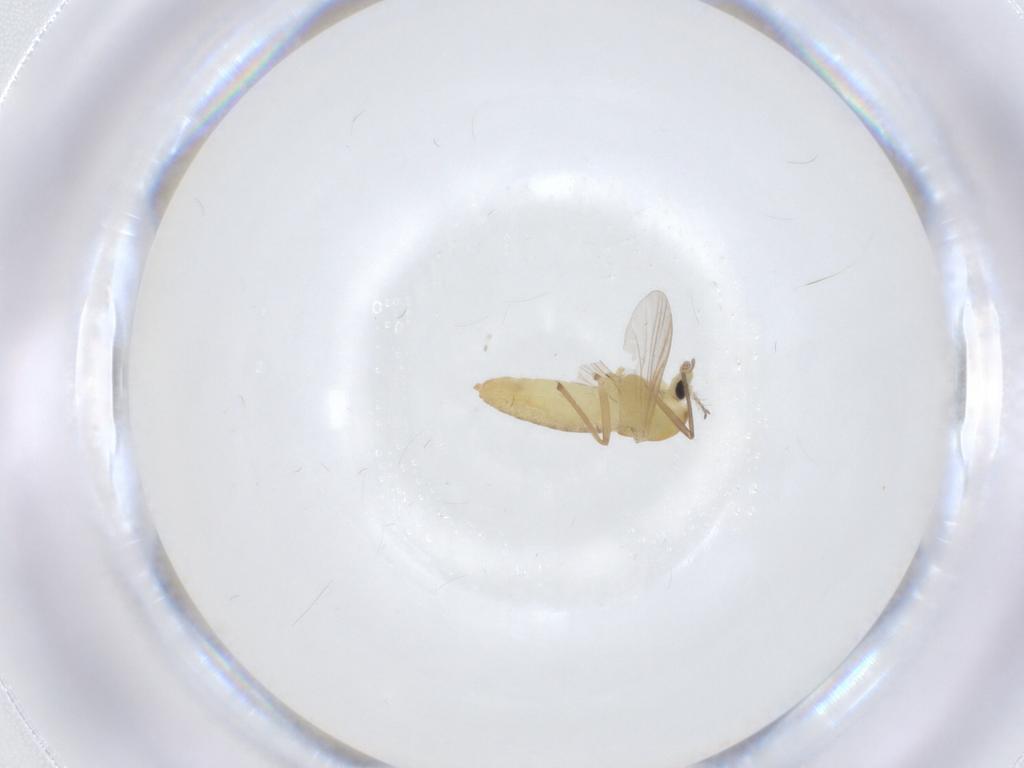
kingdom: Animalia
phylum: Arthropoda
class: Insecta
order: Diptera
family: Chironomidae
